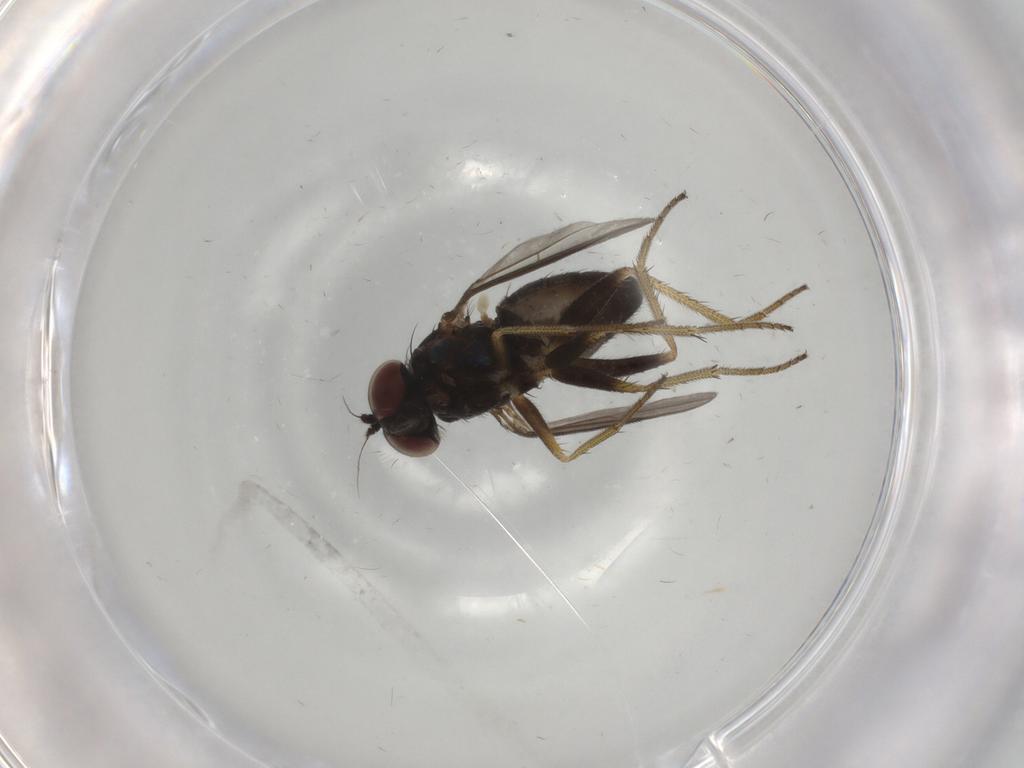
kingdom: Animalia
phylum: Arthropoda
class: Insecta
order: Diptera
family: Dolichopodidae
